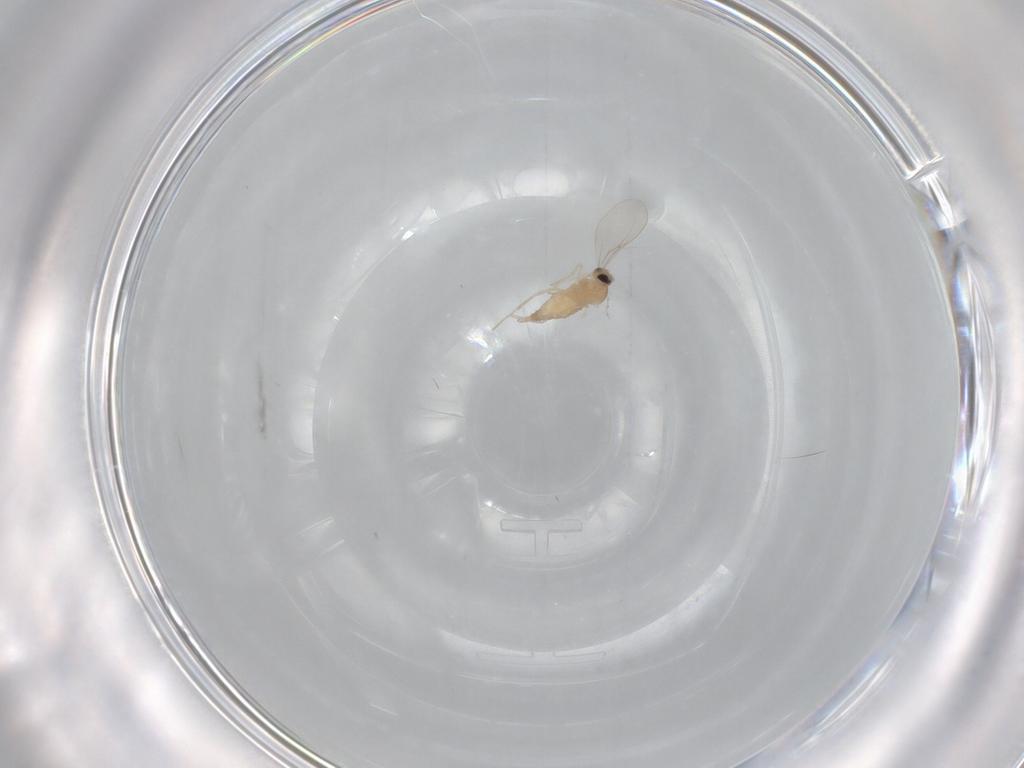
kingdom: Animalia
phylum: Arthropoda
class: Insecta
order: Diptera
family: Cecidomyiidae
